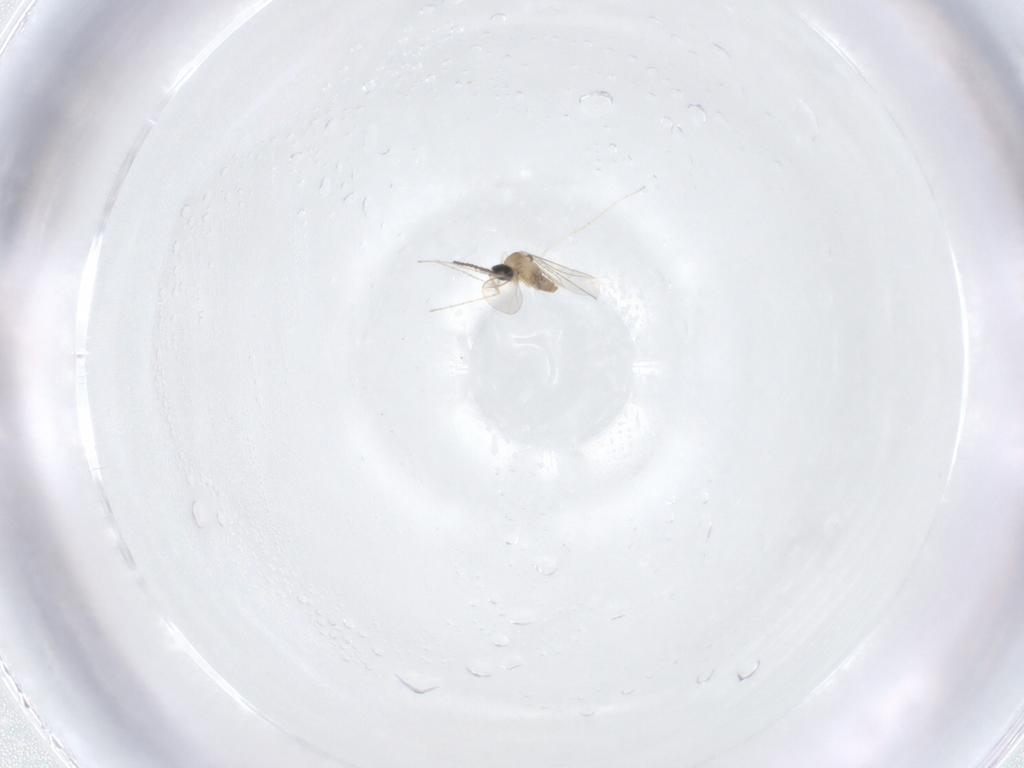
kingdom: Animalia
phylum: Arthropoda
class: Insecta
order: Diptera
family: Cecidomyiidae
